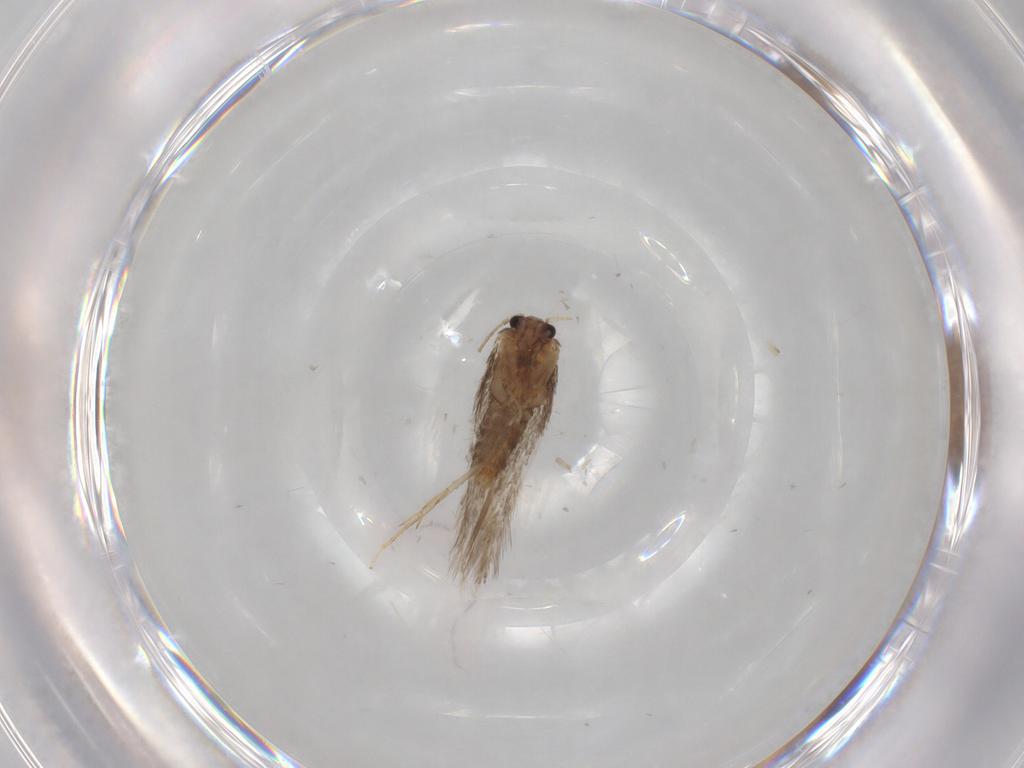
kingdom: Animalia
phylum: Arthropoda
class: Insecta
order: Lepidoptera
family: Nepticulidae
